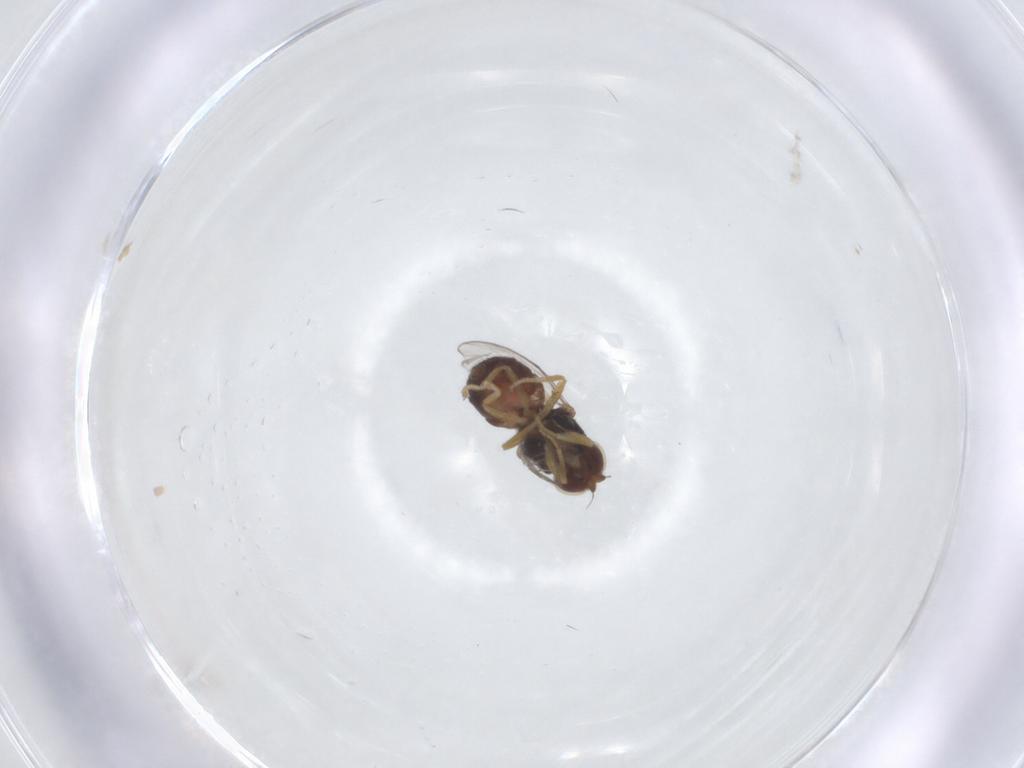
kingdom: Animalia
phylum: Arthropoda
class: Insecta
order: Diptera
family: Chloropidae
